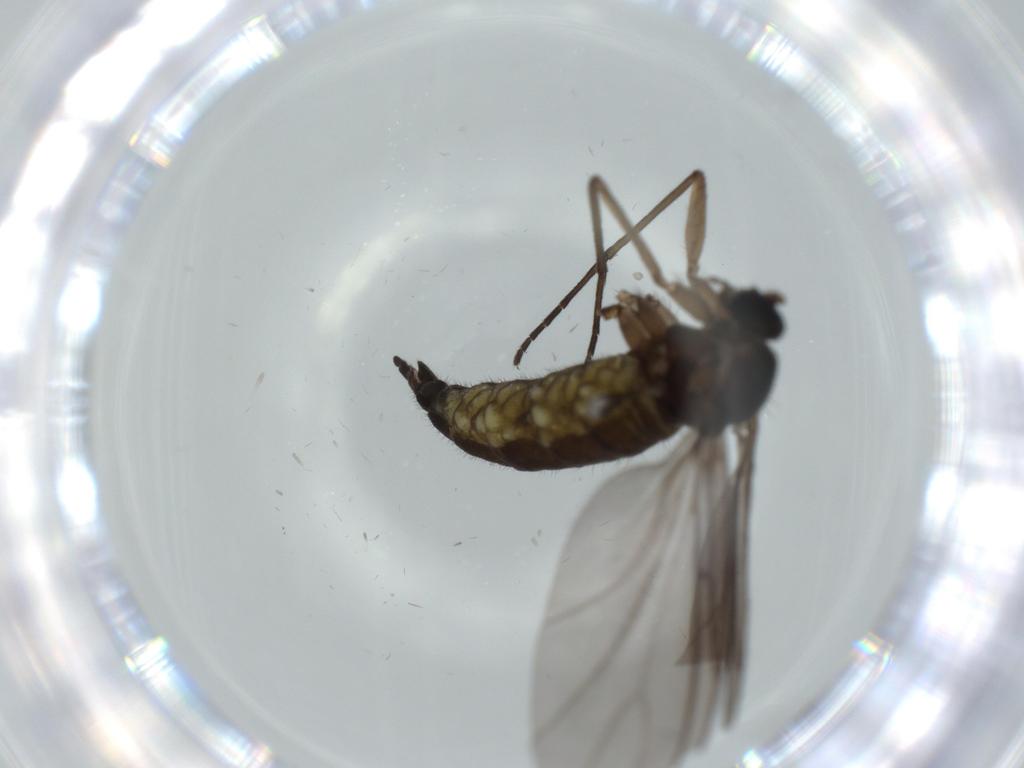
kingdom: Animalia
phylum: Arthropoda
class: Insecta
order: Diptera
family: Sciaridae
